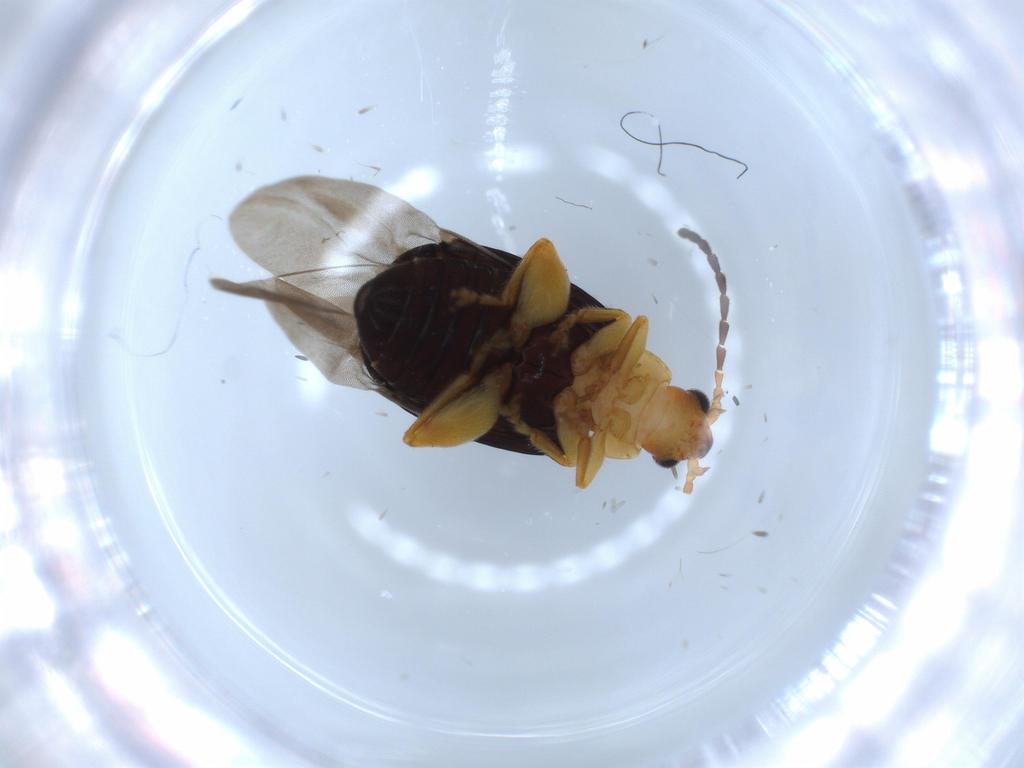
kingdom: Animalia
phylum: Arthropoda
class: Insecta
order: Coleoptera
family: Chrysomelidae
